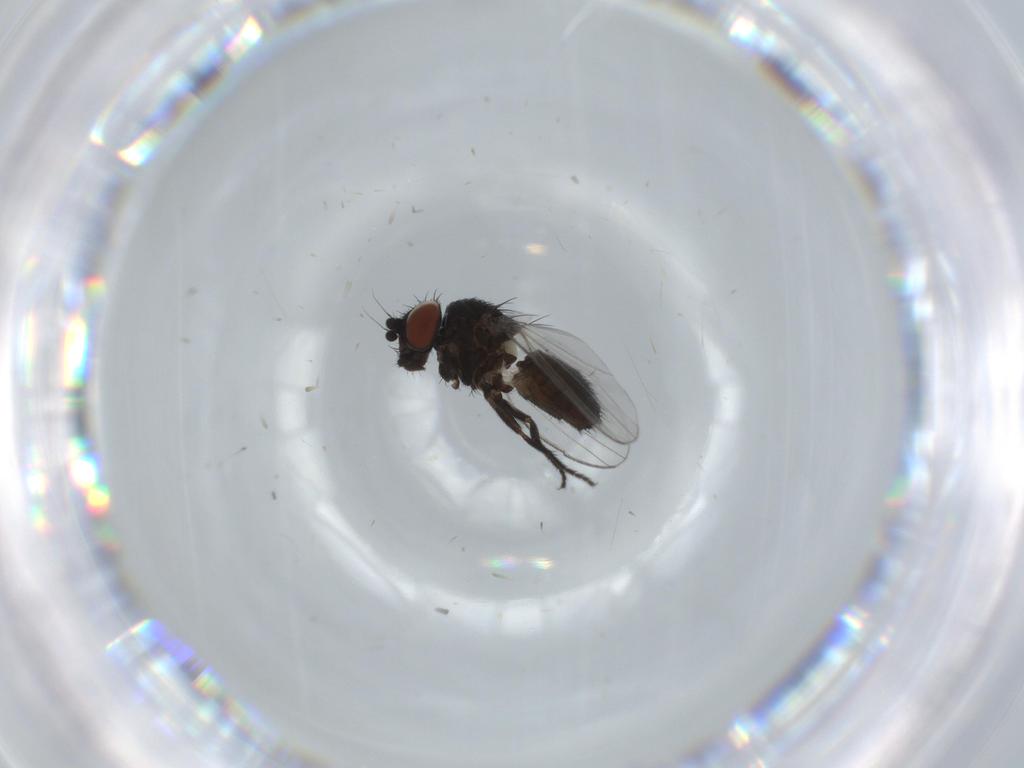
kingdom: Animalia
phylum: Arthropoda
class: Insecta
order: Diptera
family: Milichiidae
